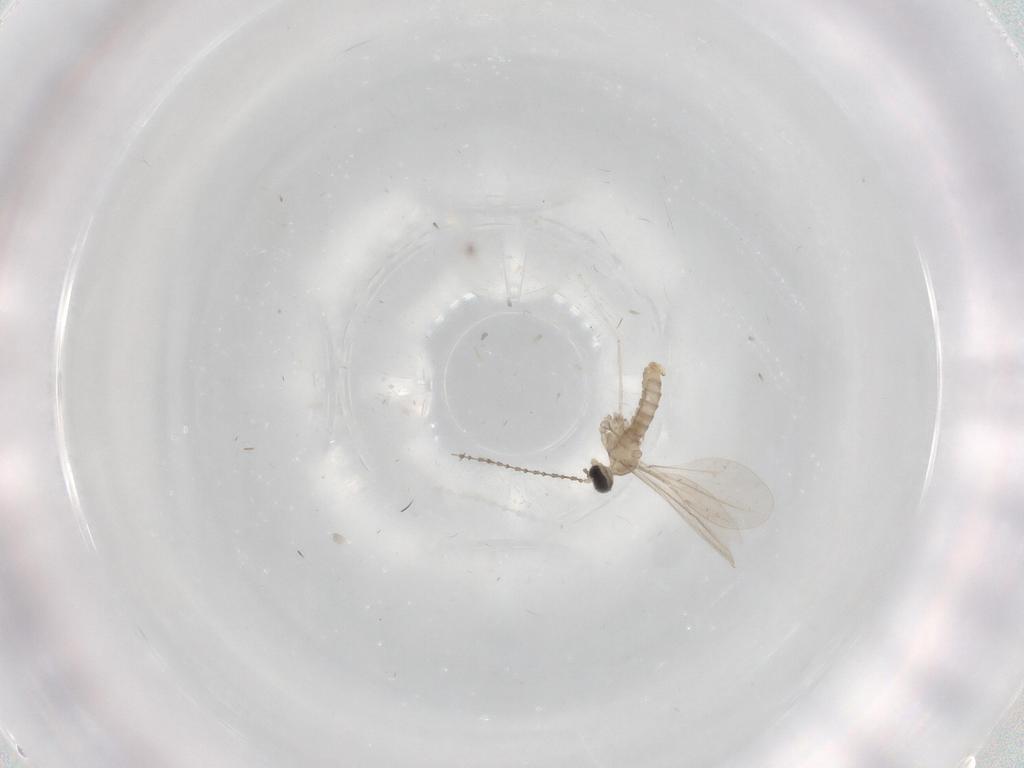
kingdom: Animalia
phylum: Arthropoda
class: Insecta
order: Diptera
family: Cecidomyiidae
